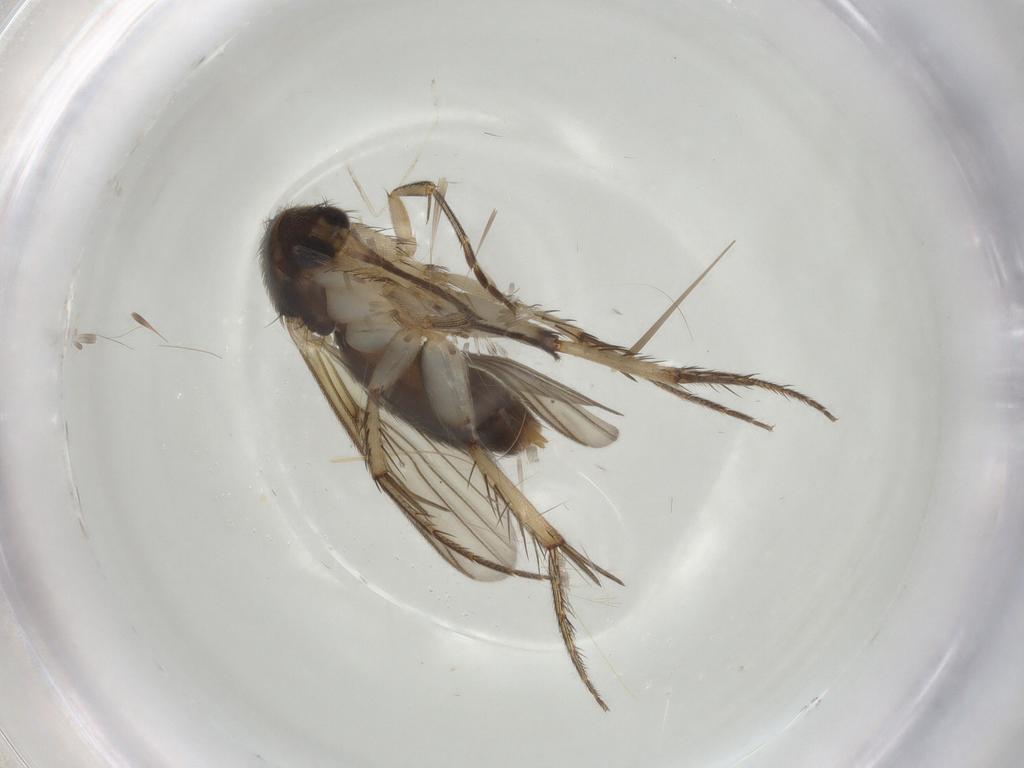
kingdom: Animalia
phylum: Arthropoda
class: Insecta
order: Diptera
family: Mycetophilidae
